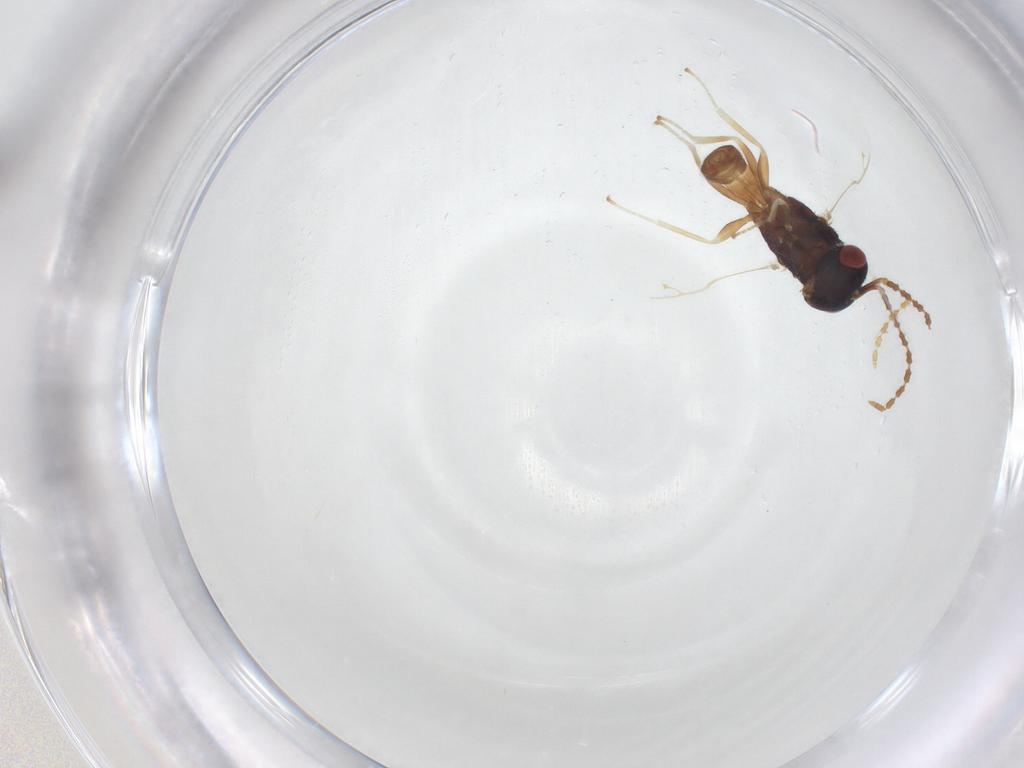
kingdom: Animalia
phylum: Arthropoda
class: Insecta
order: Hymenoptera
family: Pteromalidae
